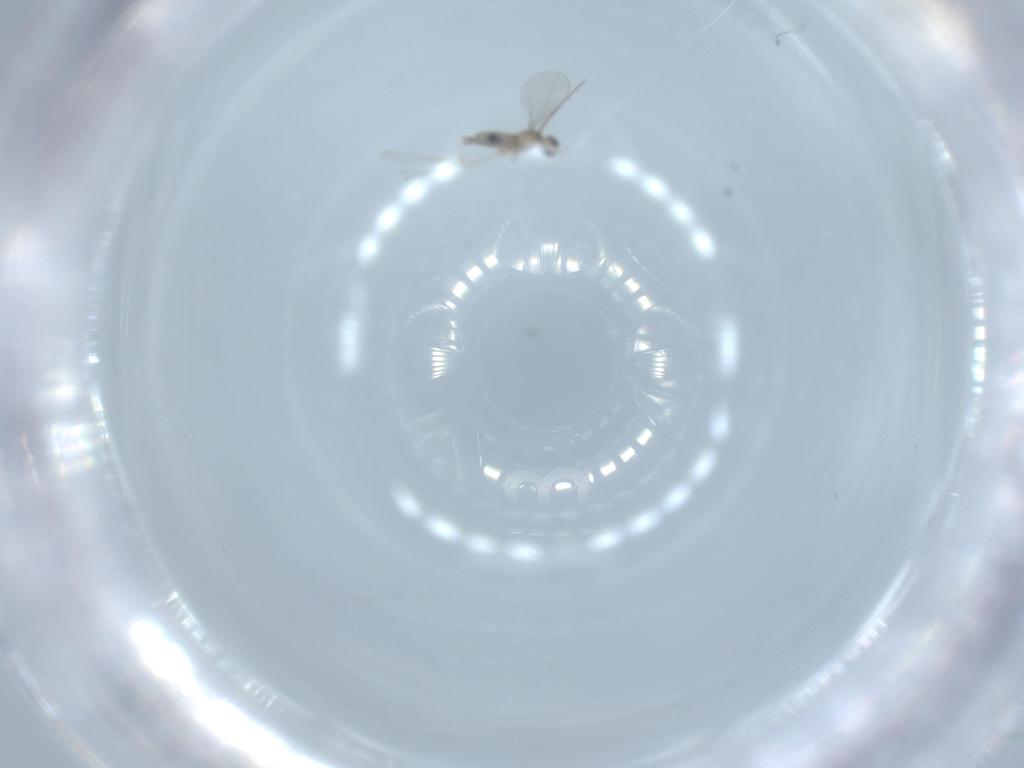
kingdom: Animalia
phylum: Arthropoda
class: Insecta
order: Diptera
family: Cecidomyiidae
